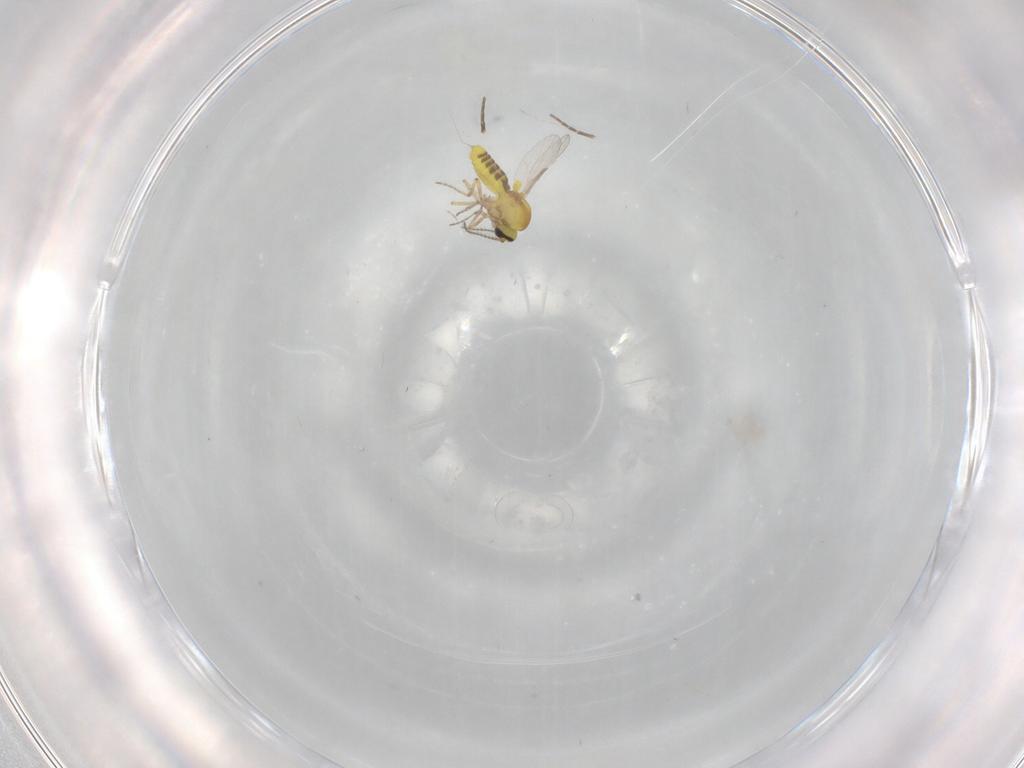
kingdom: Animalia
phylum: Arthropoda
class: Insecta
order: Diptera
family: Ceratopogonidae
